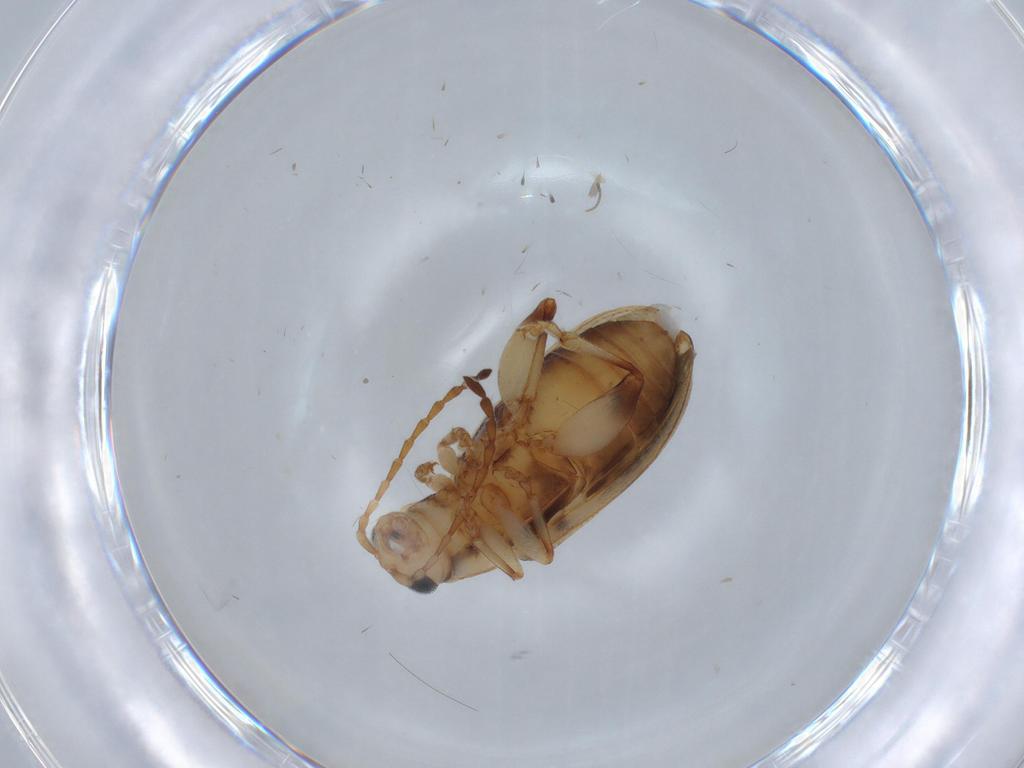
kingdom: Animalia
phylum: Arthropoda
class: Insecta
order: Coleoptera
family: Chrysomelidae
